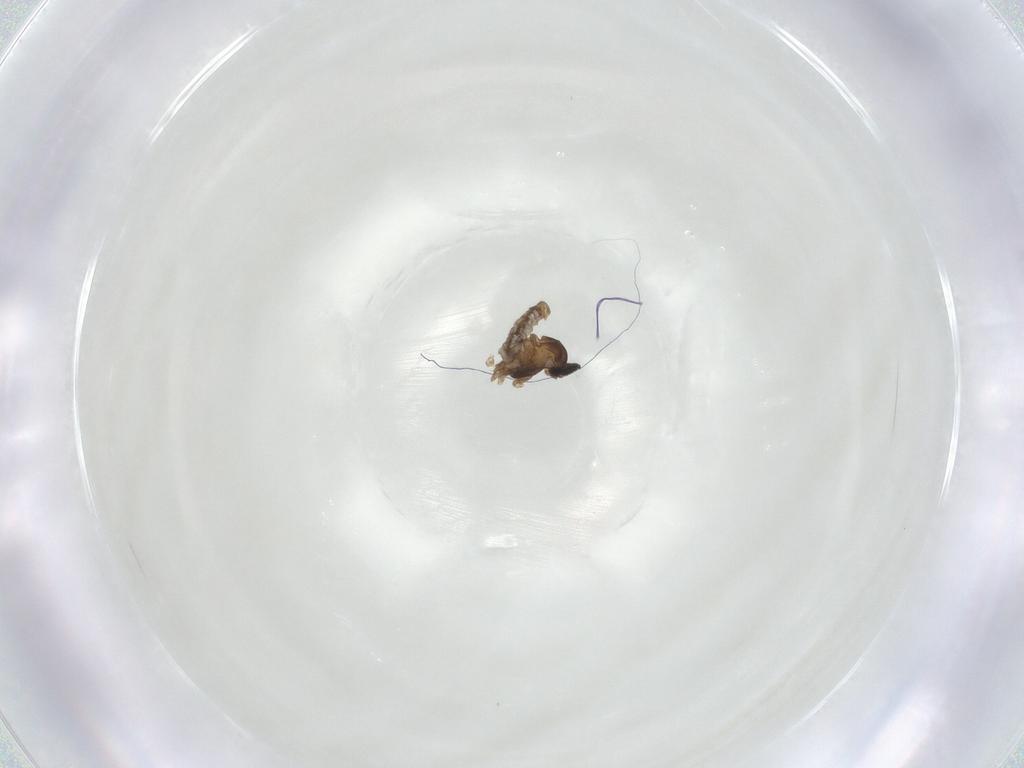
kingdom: Animalia
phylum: Arthropoda
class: Insecta
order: Diptera
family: Cecidomyiidae
